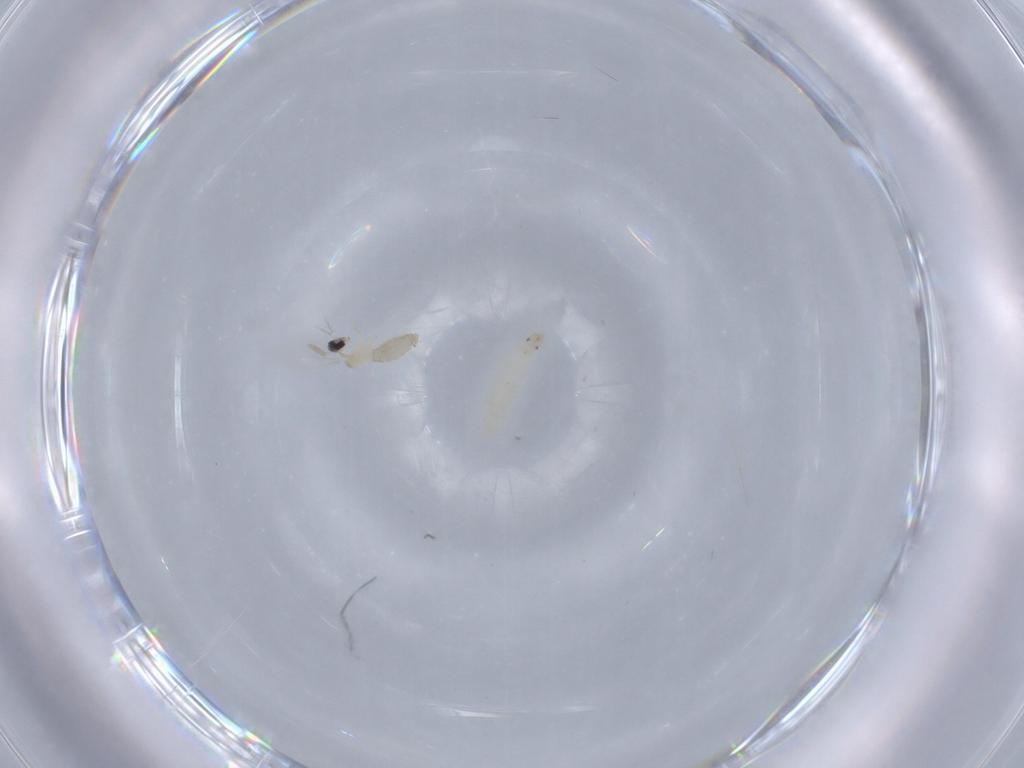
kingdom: Animalia
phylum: Arthropoda
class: Insecta
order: Diptera
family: Cecidomyiidae
